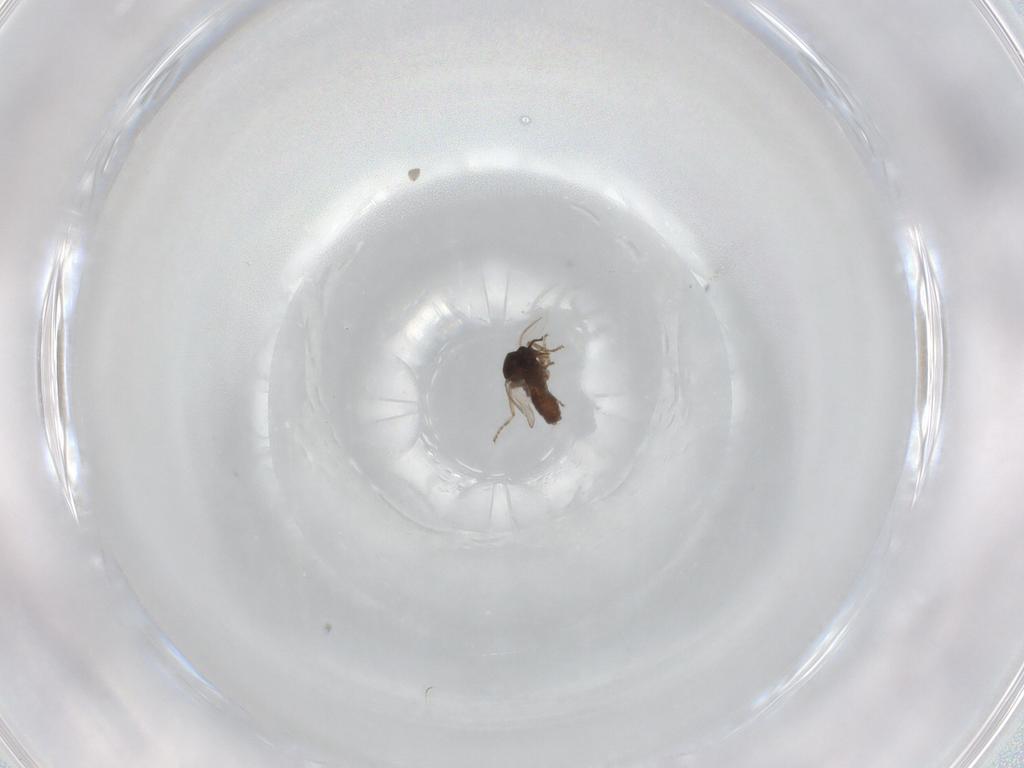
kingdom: Animalia
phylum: Arthropoda
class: Insecta
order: Diptera
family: Ceratopogonidae
